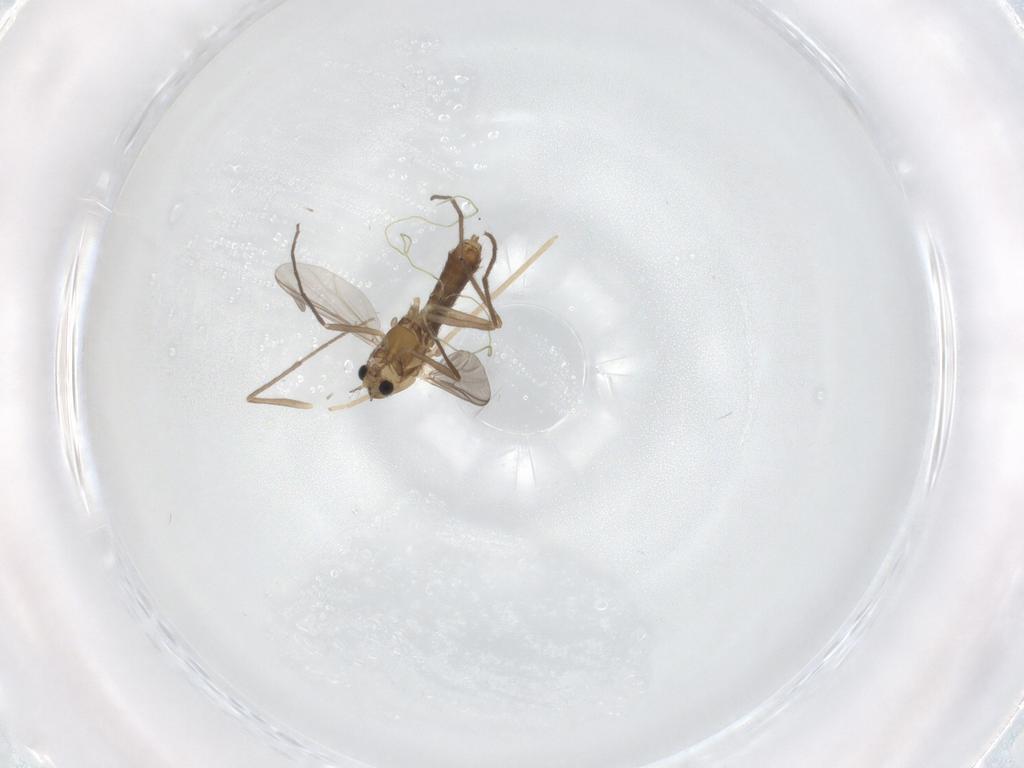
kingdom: Animalia
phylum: Arthropoda
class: Insecta
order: Diptera
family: Chironomidae
